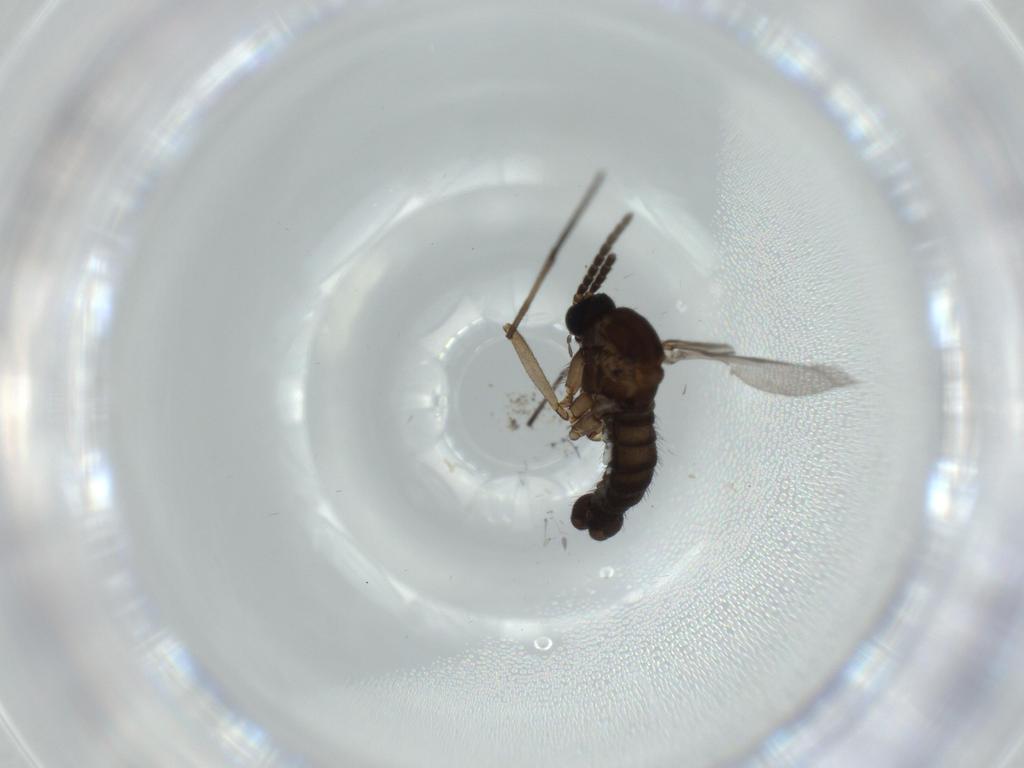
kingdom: Animalia
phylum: Arthropoda
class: Insecta
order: Diptera
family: Sciaridae
